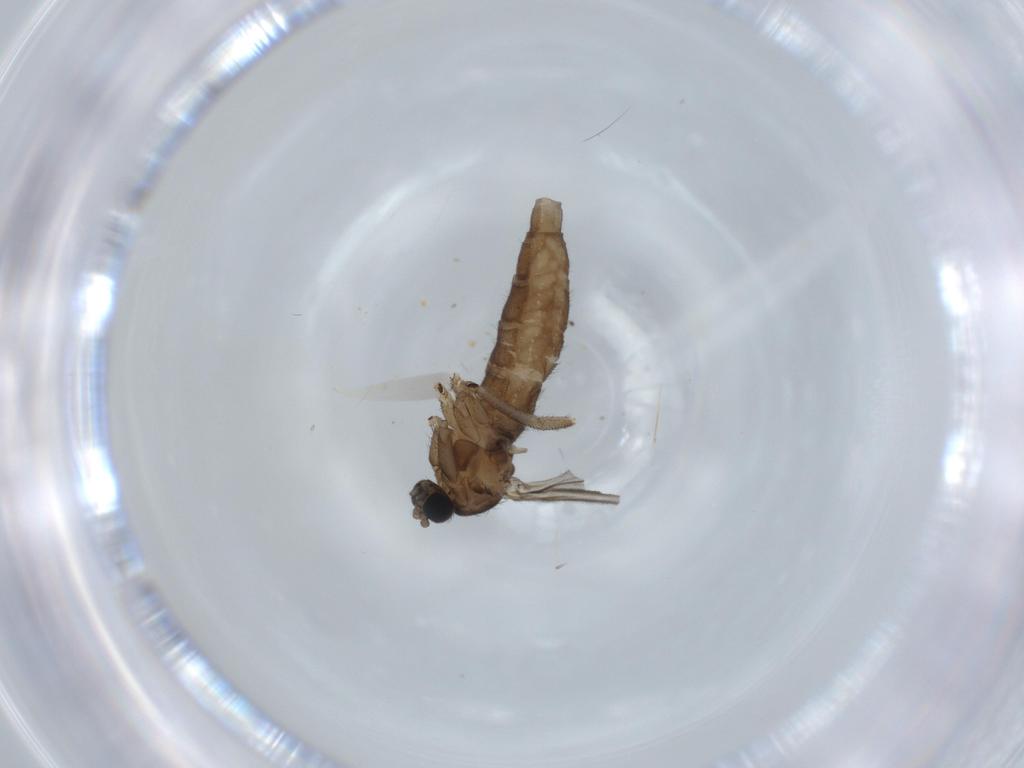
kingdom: Animalia
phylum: Arthropoda
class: Insecta
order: Diptera
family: Sciaridae
